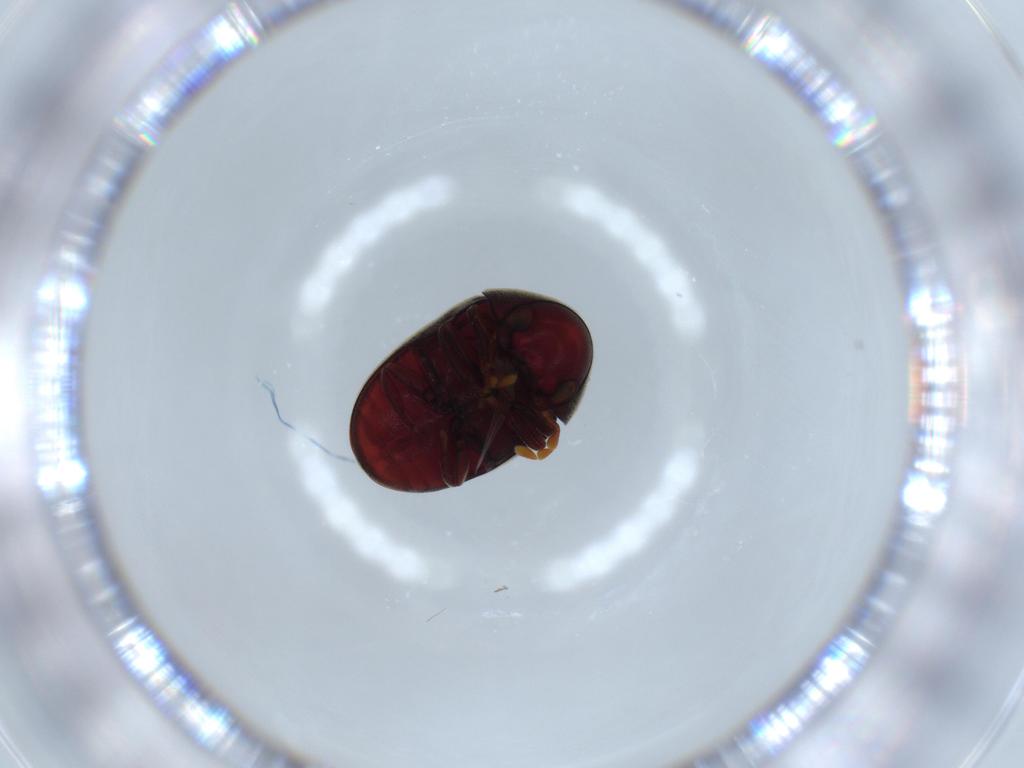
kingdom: Animalia
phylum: Arthropoda
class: Insecta
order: Coleoptera
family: Ptinidae
